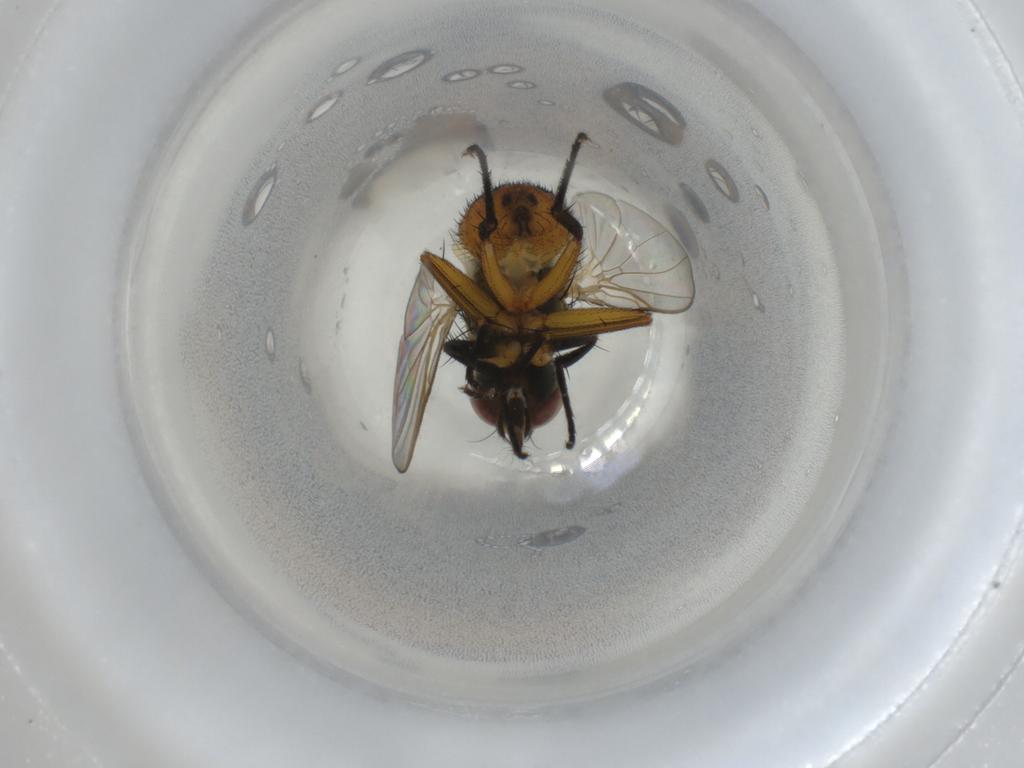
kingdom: Animalia
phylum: Arthropoda
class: Insecta
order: Diptera
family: Muscidae
